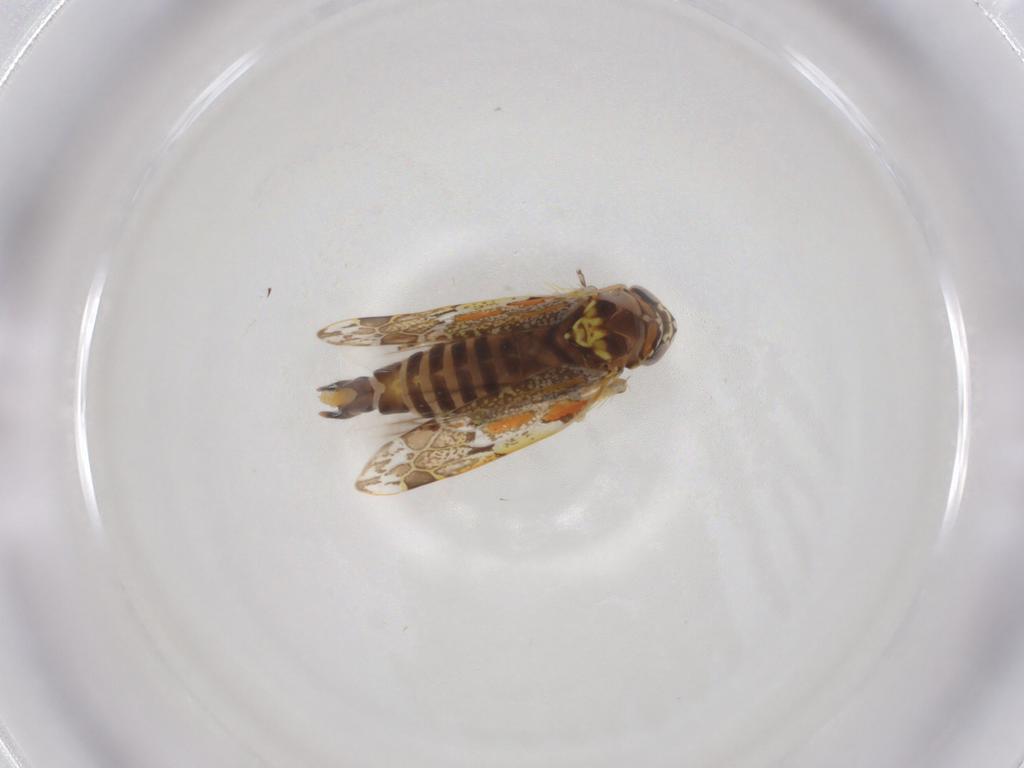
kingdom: Animalia
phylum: Arthropoda
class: Insecta
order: Hemiptera
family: Cicadellidae
